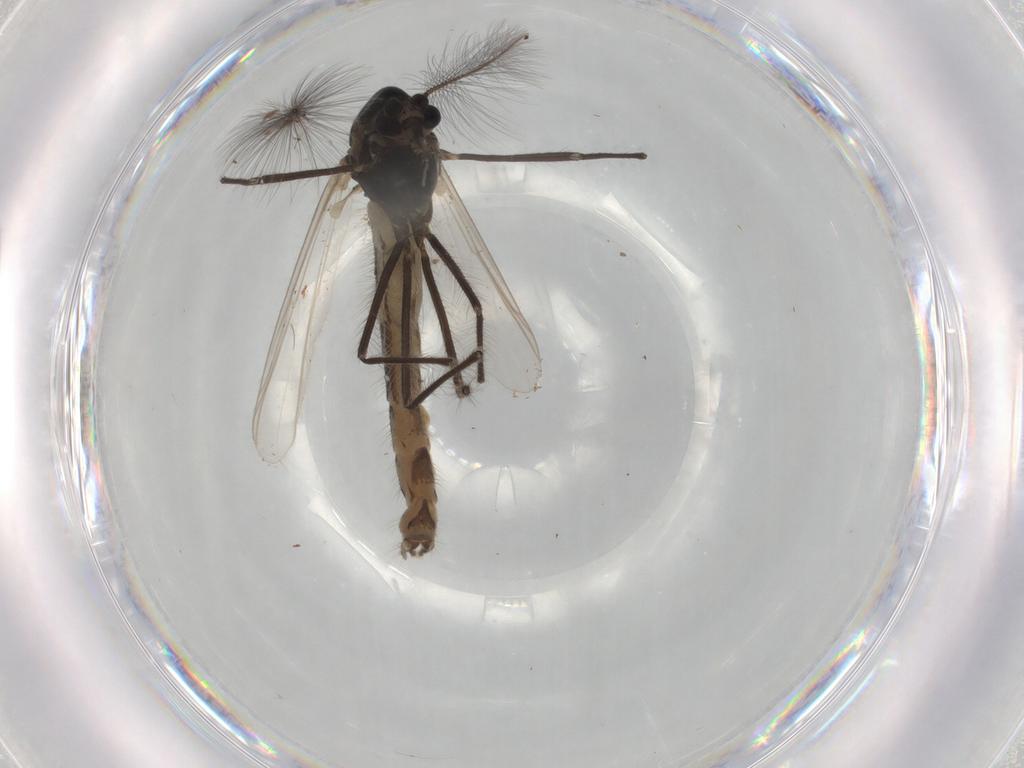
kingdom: Animalia
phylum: Arthropoda
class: Insecta
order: Diptera
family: Chironomidae
